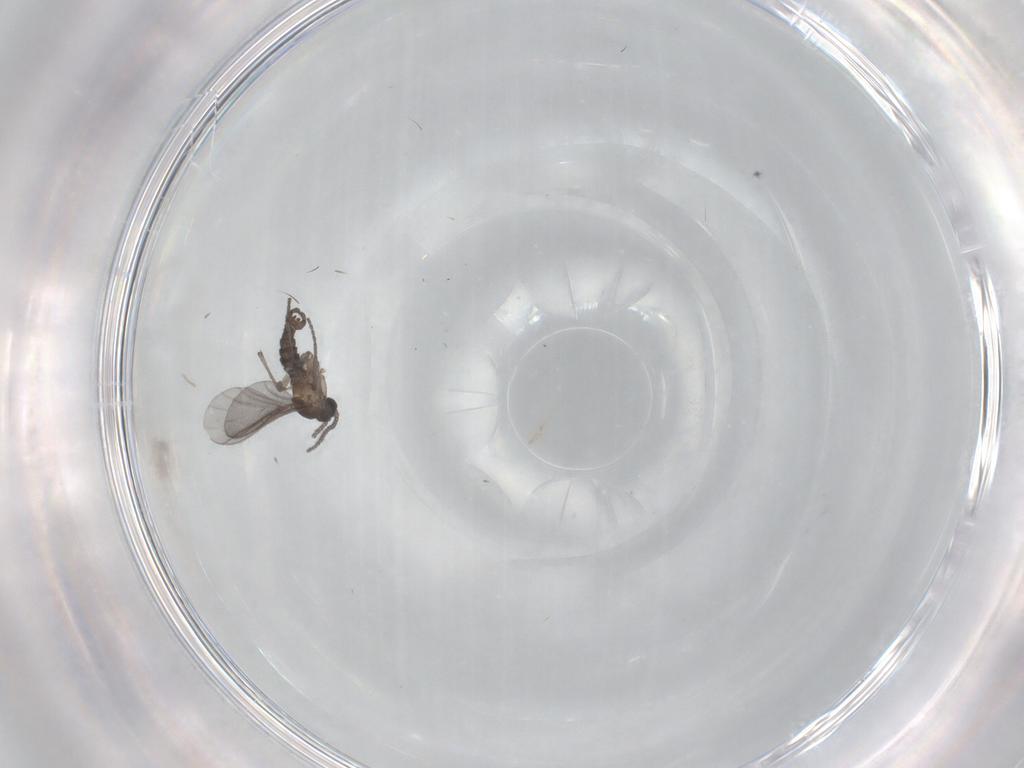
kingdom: Animalia
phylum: Arthropoda
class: Insecta
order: Diptera
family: Sciaridae
